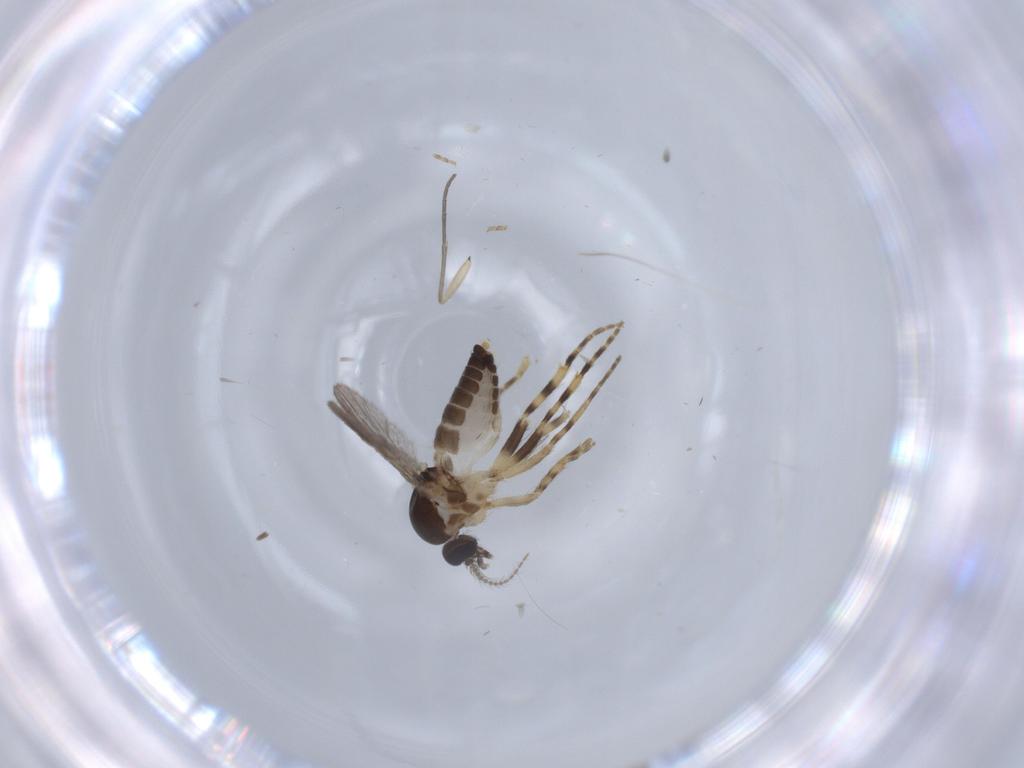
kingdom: Animalia
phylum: Arthropoda
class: Insecta
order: Diptera
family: Ceratopogonidae
